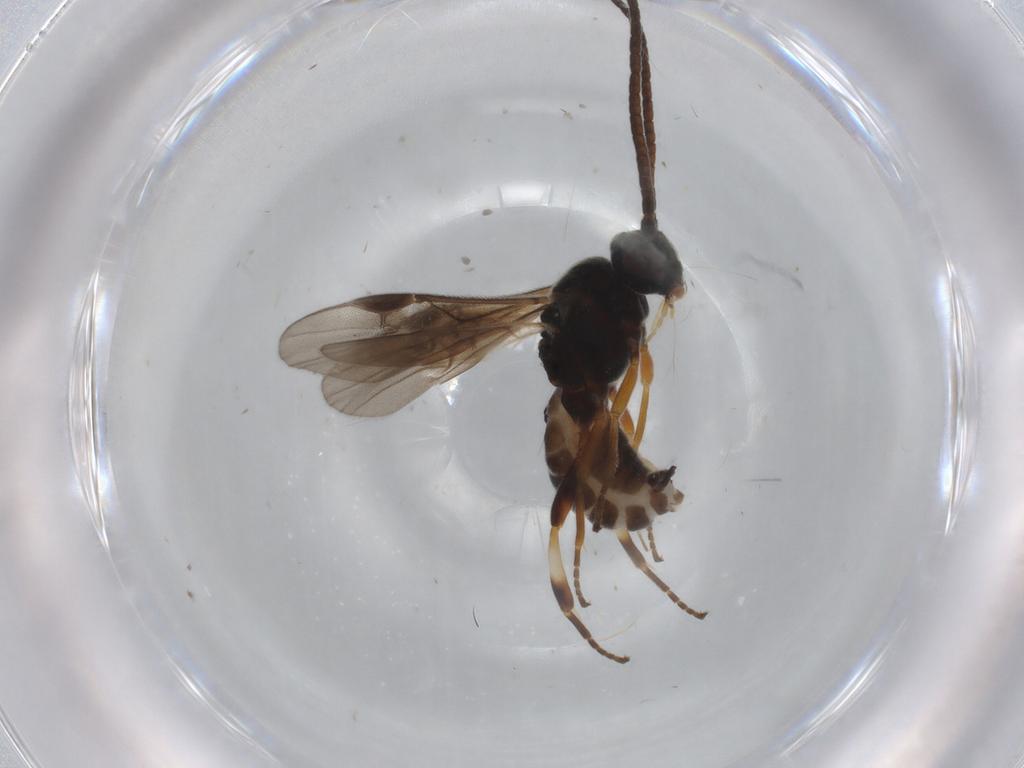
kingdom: Animalia
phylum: Arthropoda
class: Insecta
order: Hymenoptera
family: Braconidae
